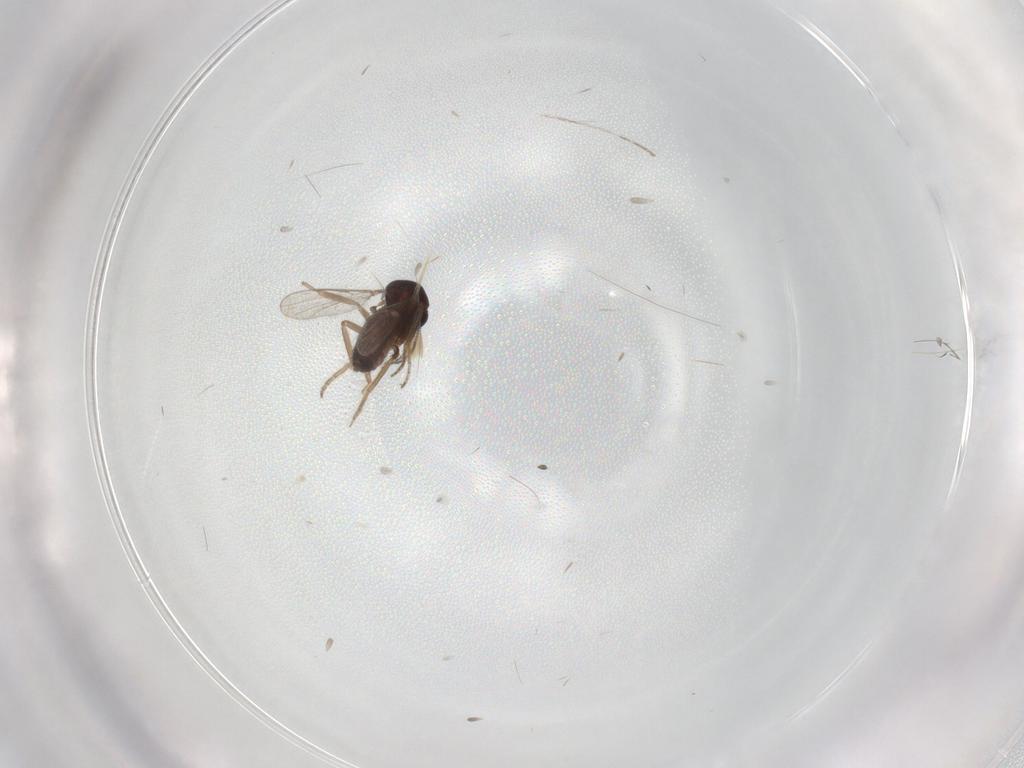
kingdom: Animalia
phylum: Arthropoda
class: Insecta
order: Diptera
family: Ceratopogonidae
